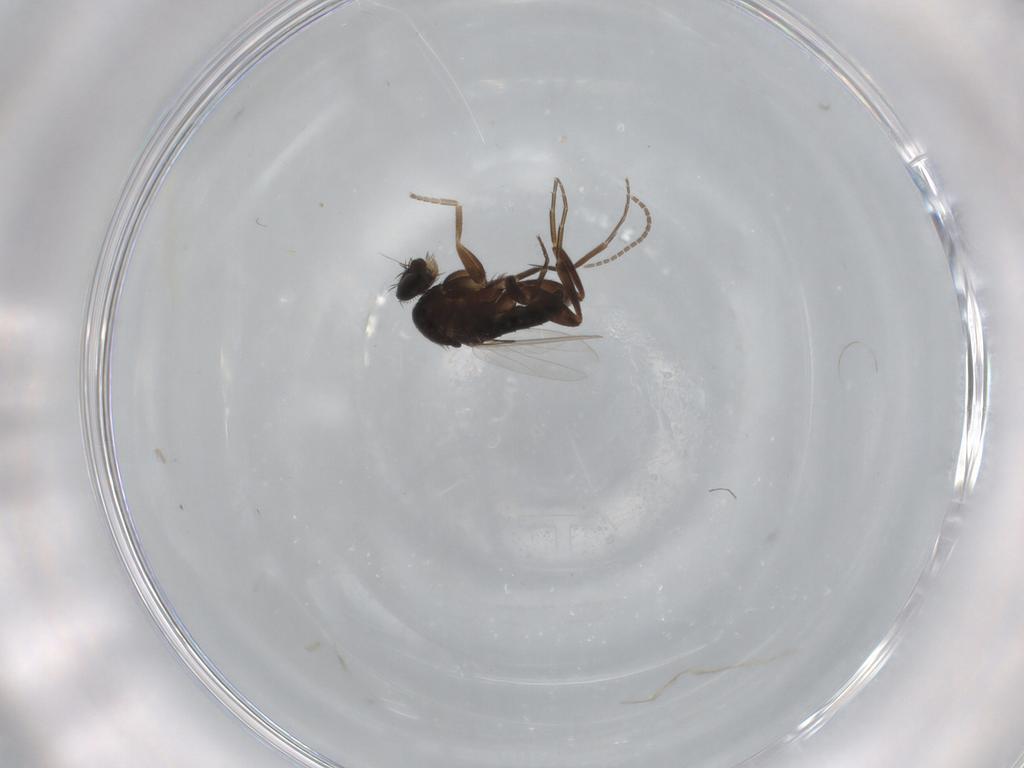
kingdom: Animalia
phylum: Arthropoda
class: Insecta
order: Diptera
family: Phoridae
